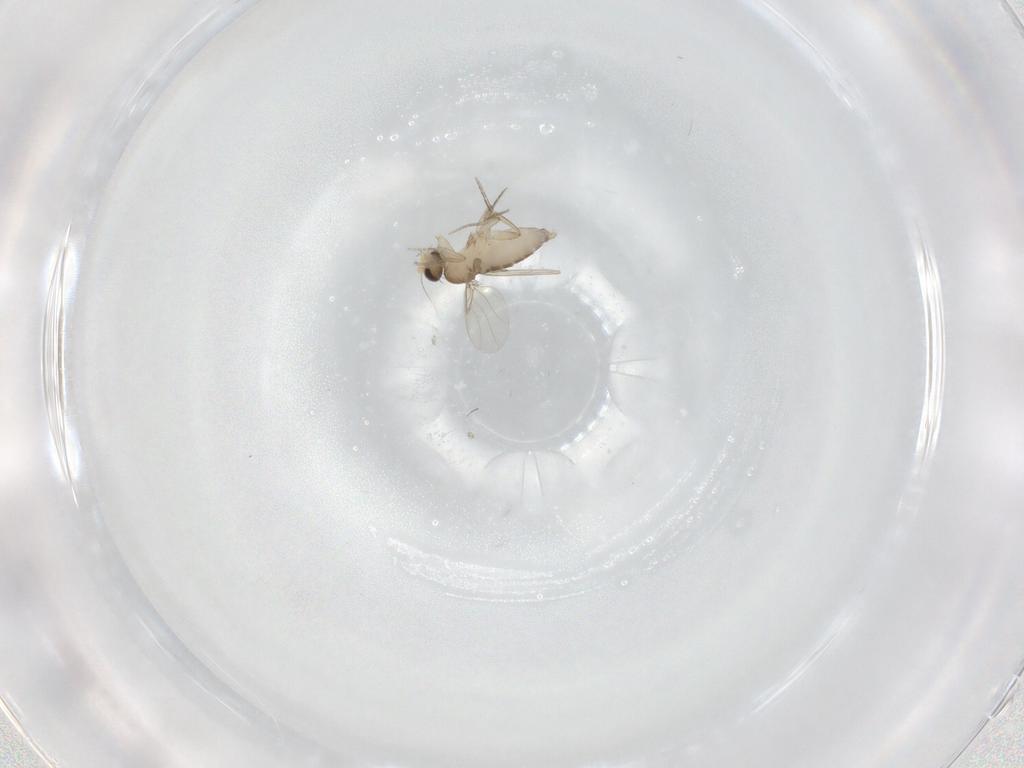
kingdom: Animalia
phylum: Arthropoda
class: Insecta
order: Diptera
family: Phoridae
